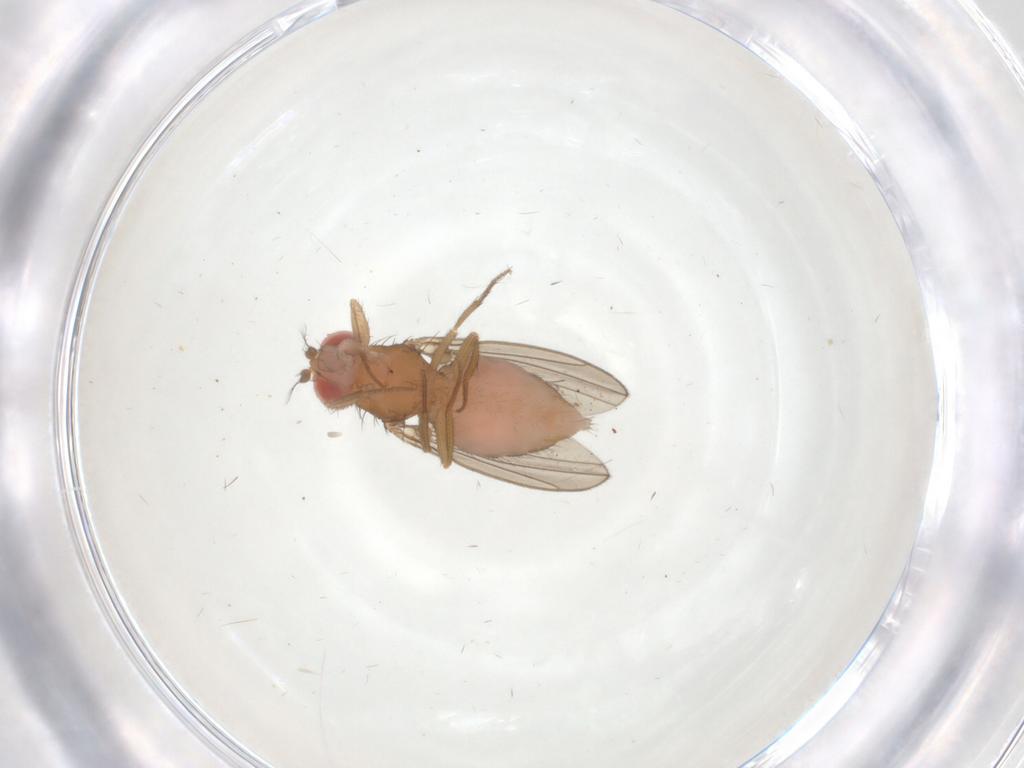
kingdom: Animalia
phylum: Arthropoda
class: Insecta
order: Diptera
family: Drosophilidae
